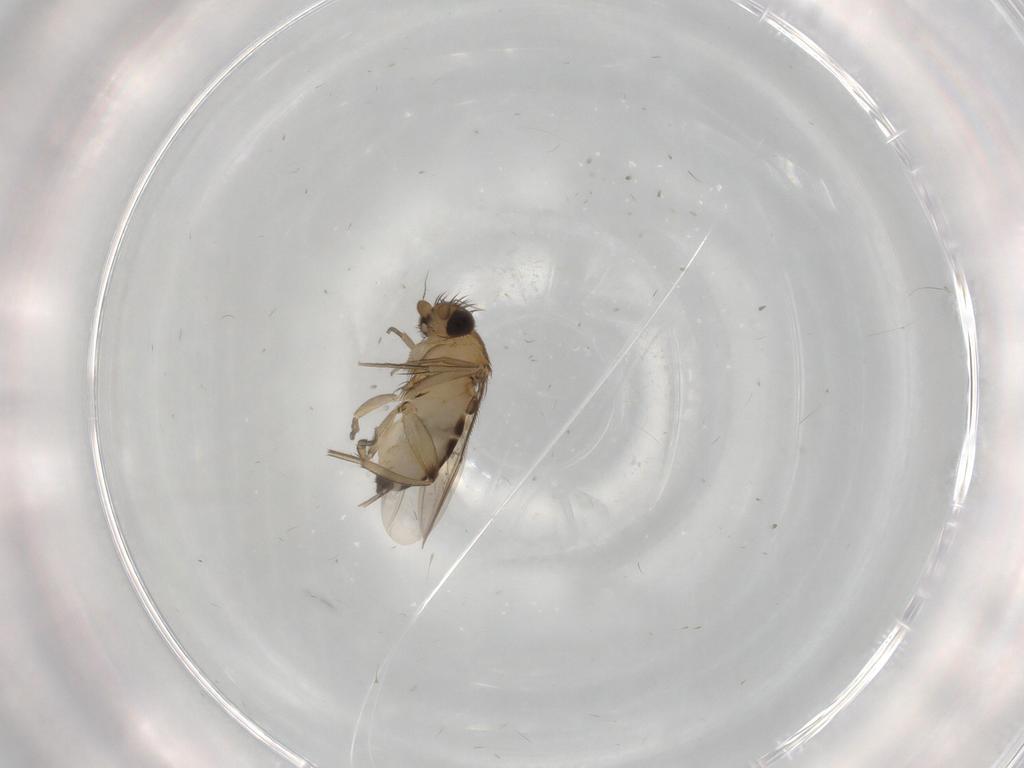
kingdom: Animalia
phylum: Arthropoda
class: Insecta
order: Diptera
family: Phoridae
